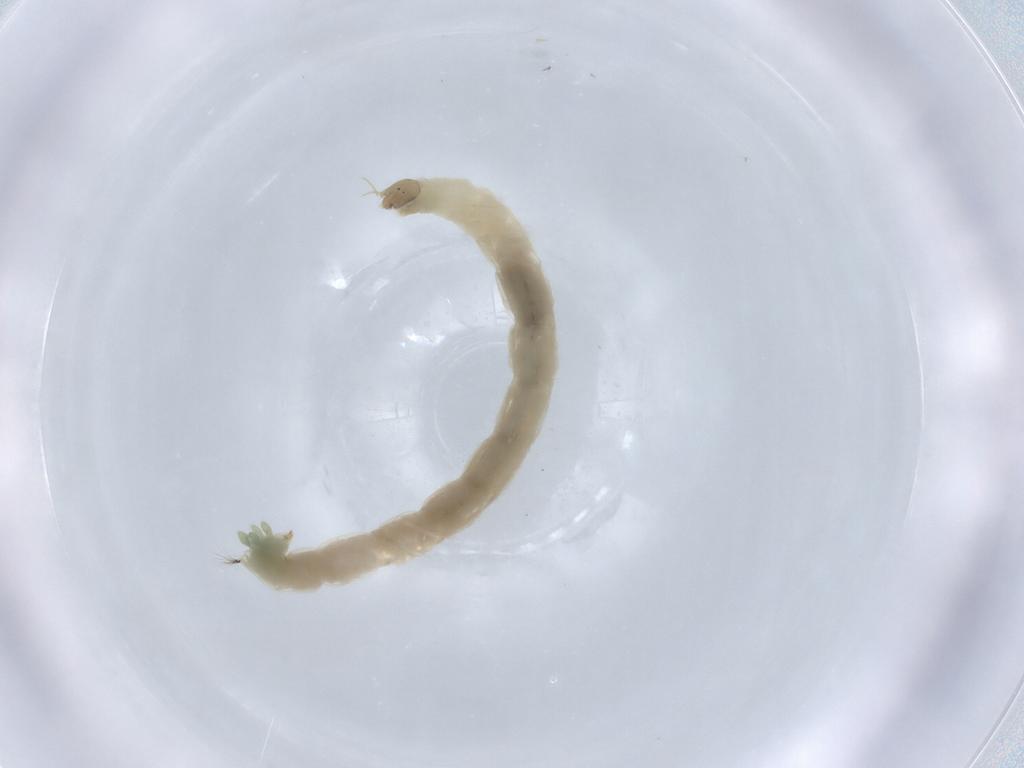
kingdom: Animalia
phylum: Arthropoda
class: Insecta
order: Diptera
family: Chironomidae
